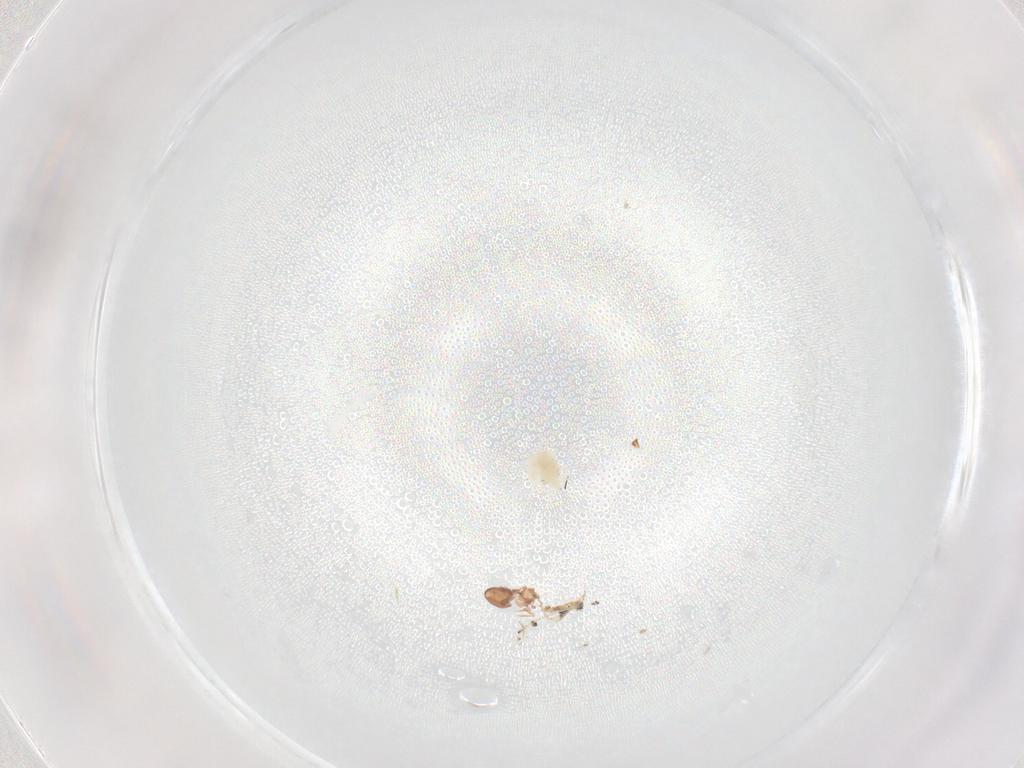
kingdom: Animalia
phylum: Arthropoda
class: Arachnida
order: Trombidiformes
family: Bdellidae
